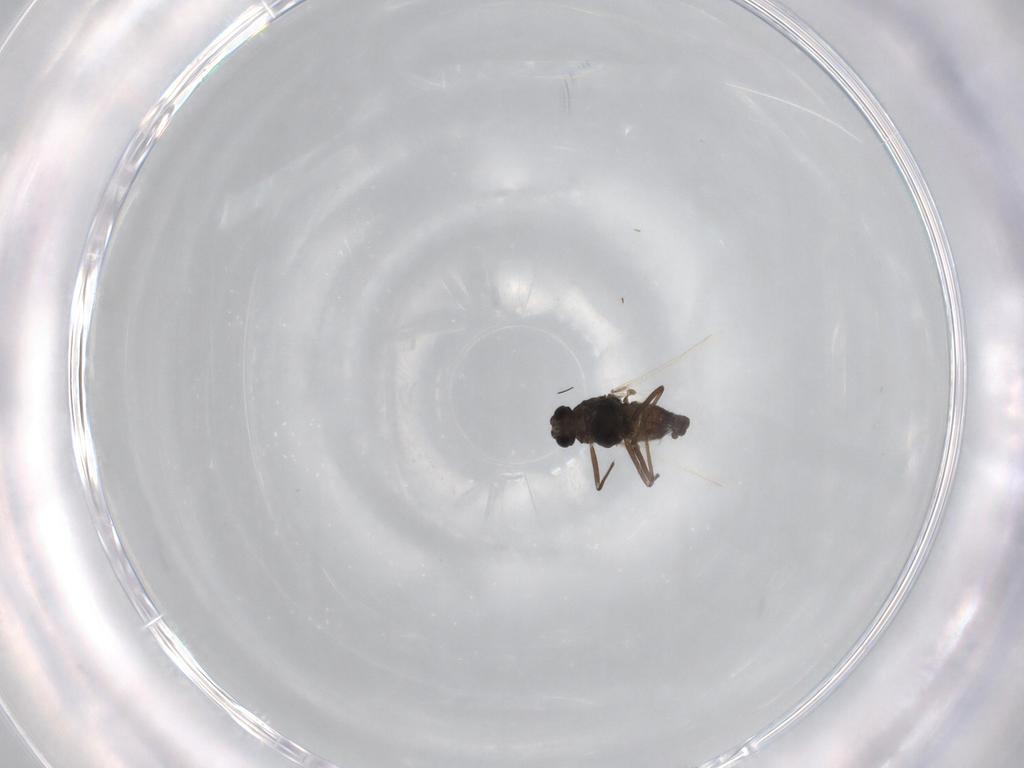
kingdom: Animalia
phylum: Arthropoda
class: Insecta
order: Diptera
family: Chironomidae
